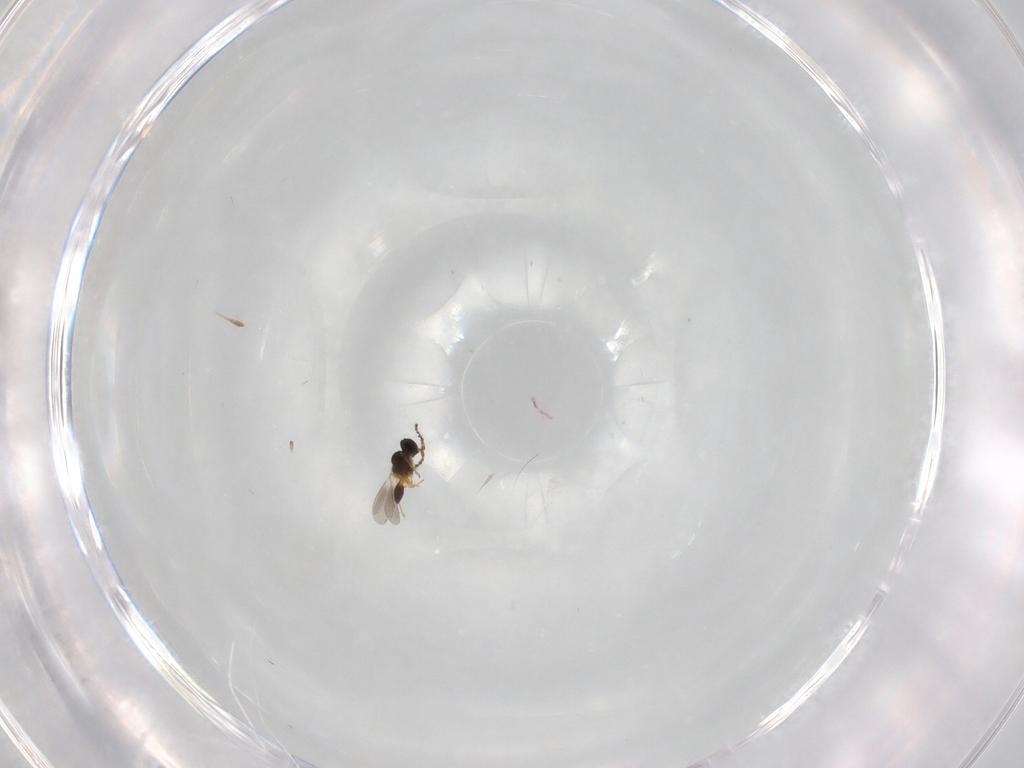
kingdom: Animalia
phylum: Arthropoda
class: Insecta
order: Hymenoptera
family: Platygastridae
